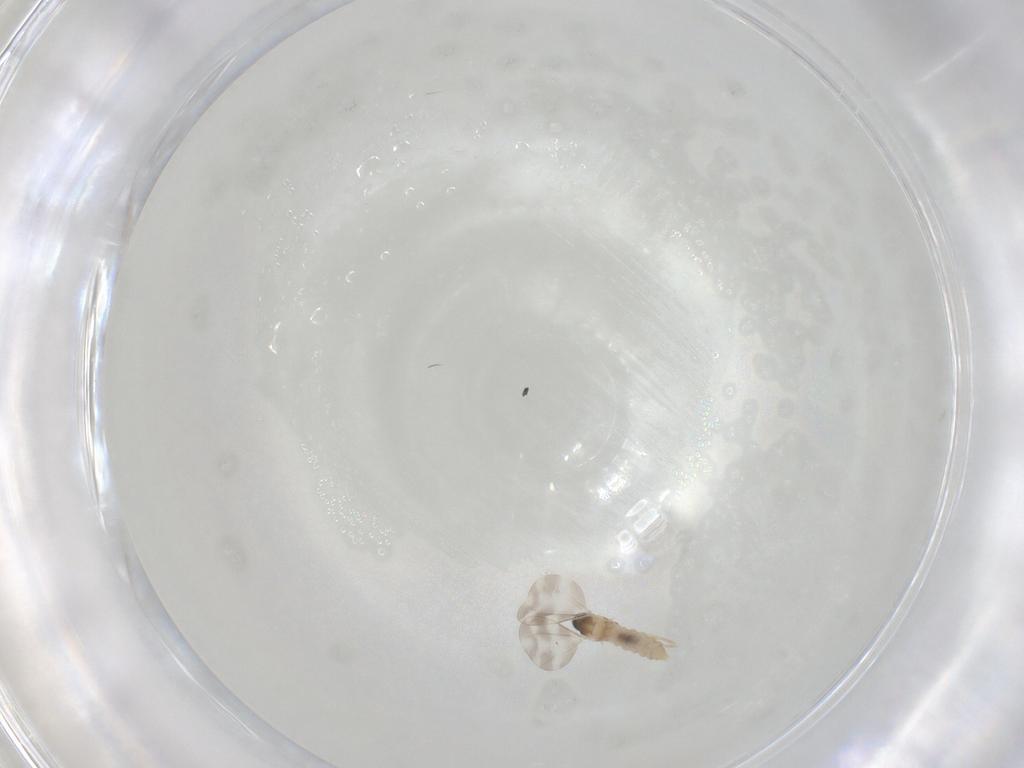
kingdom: Animalia
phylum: Arthropoda
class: Insecta
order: Diptera
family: Cecidomyiidae
